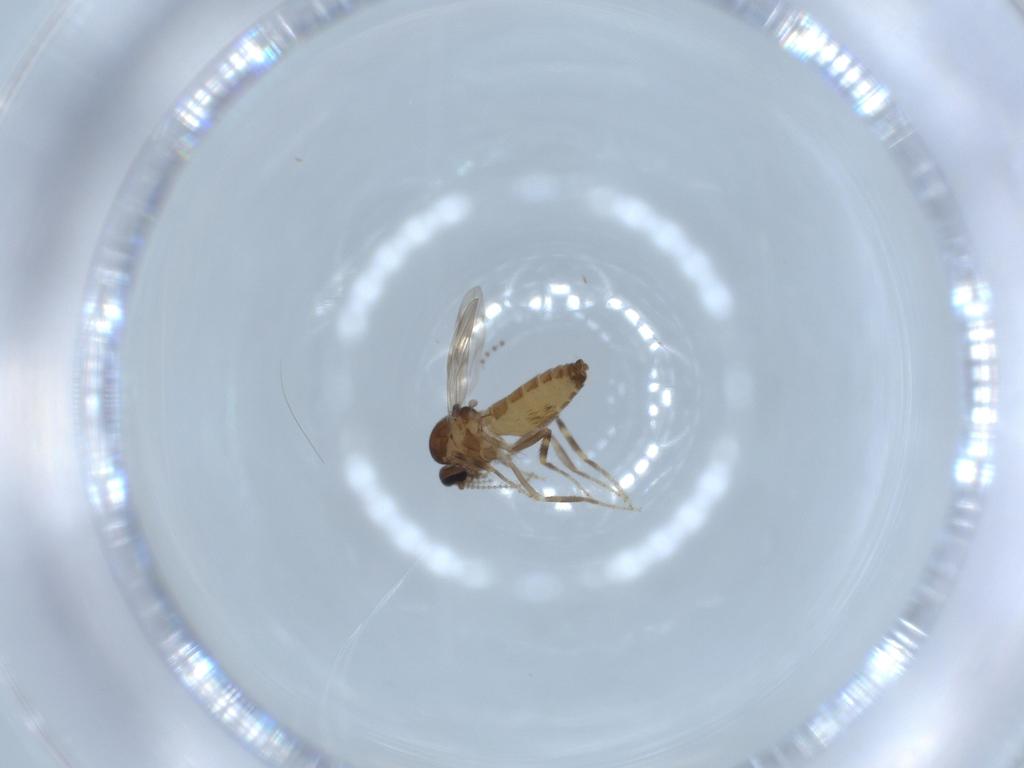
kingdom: Animalia
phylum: Arthropoda
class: Insecta
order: Diptera
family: Ceratopogonidae
